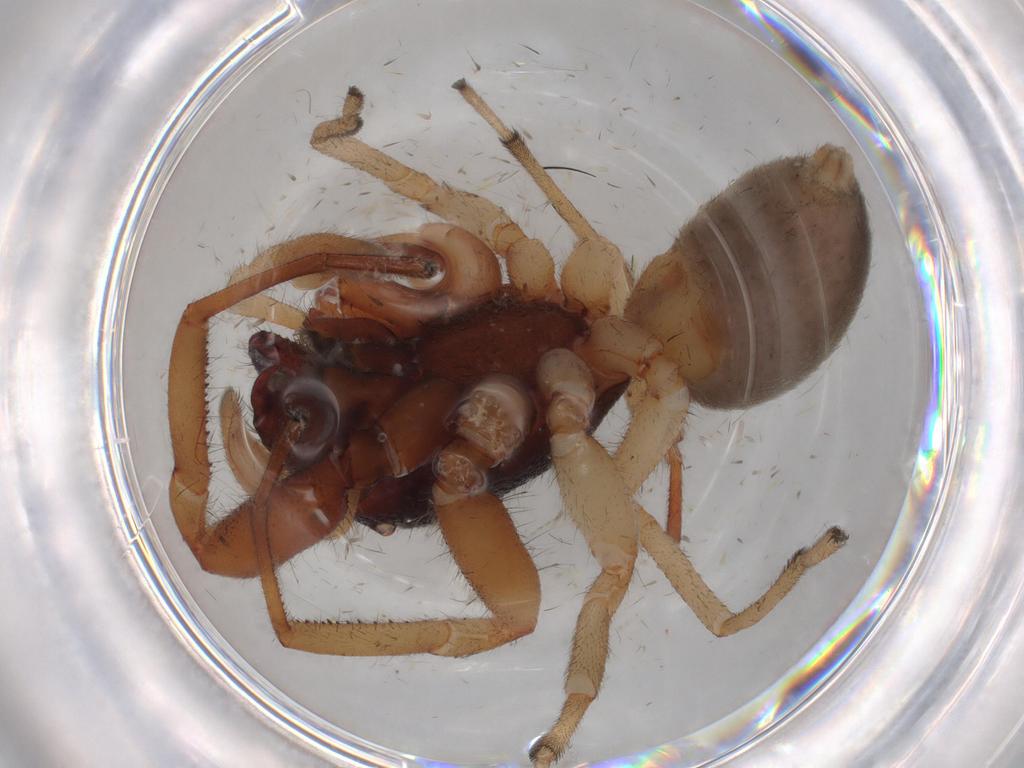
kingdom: Animalia
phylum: Arthropoda
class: Arachnida
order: Araneae
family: Trachelidae
